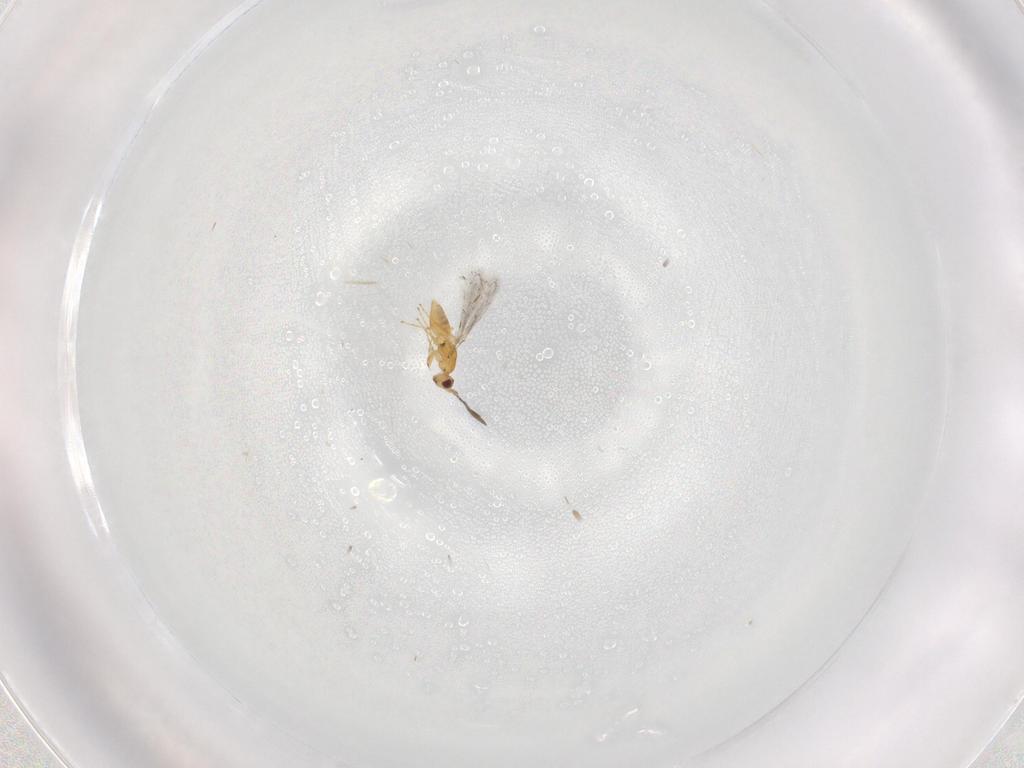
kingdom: Animalia
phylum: Arthropoda
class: Insecta
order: Hymenoptera
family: Mymaridae
